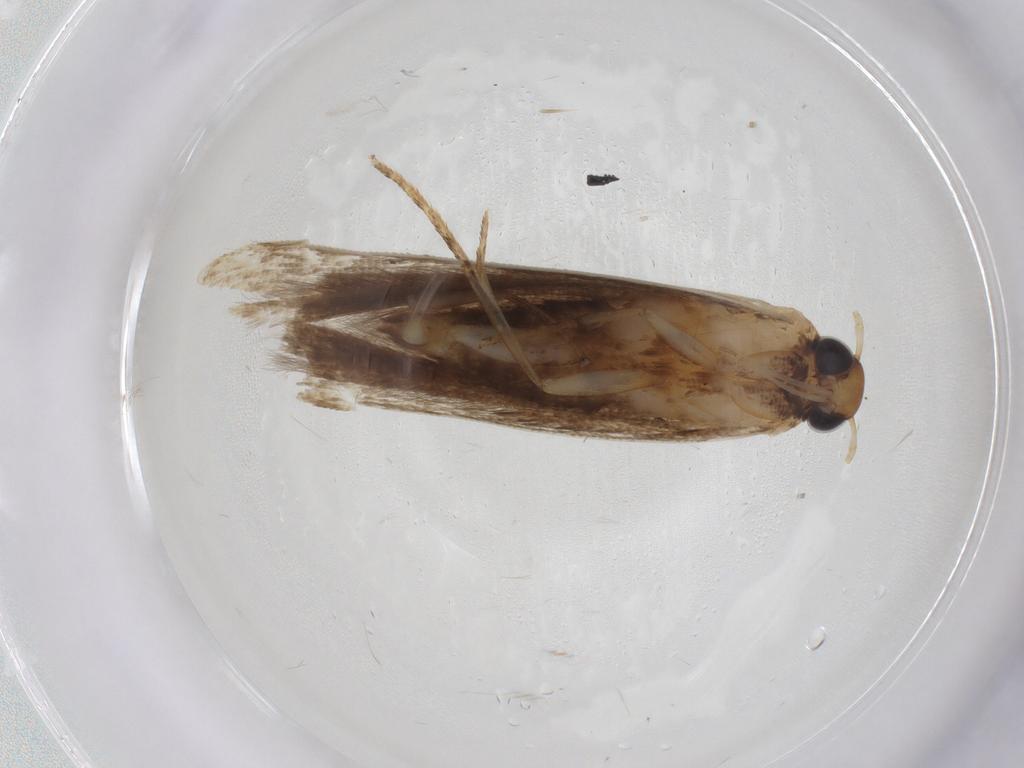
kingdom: Animalia
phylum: Arthropoda
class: Insecta
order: Lepidoptera
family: Gelechiidae
